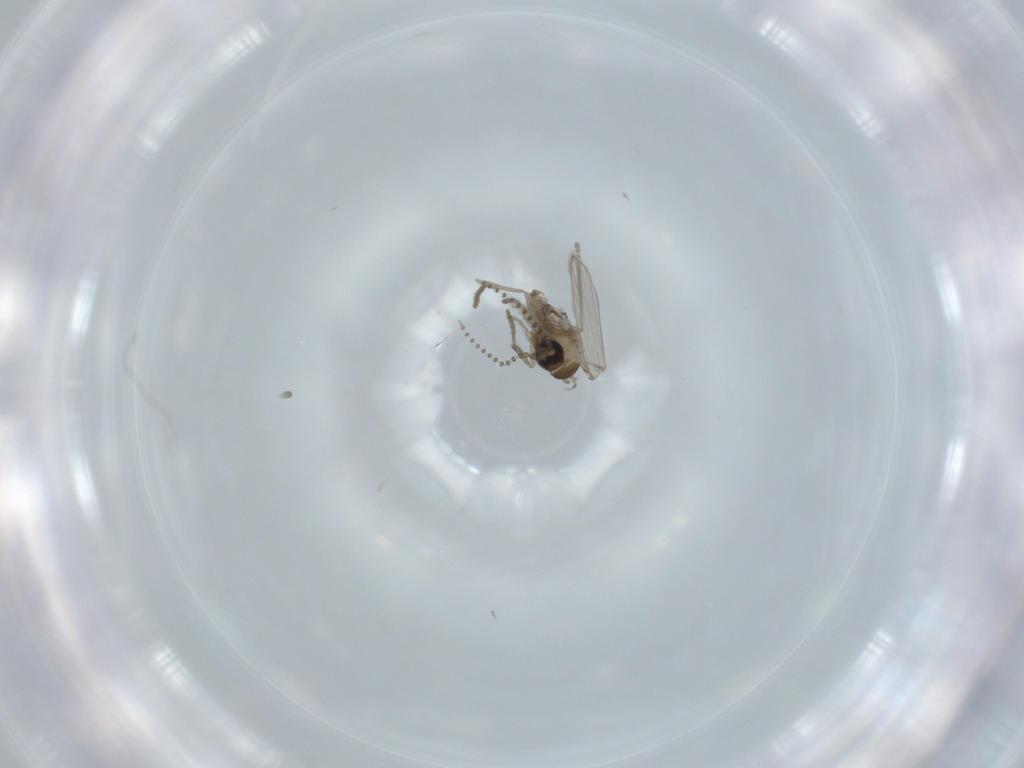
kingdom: Animalia
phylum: Arthropoda
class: Insecta
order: Diptera
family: Psychodidae
